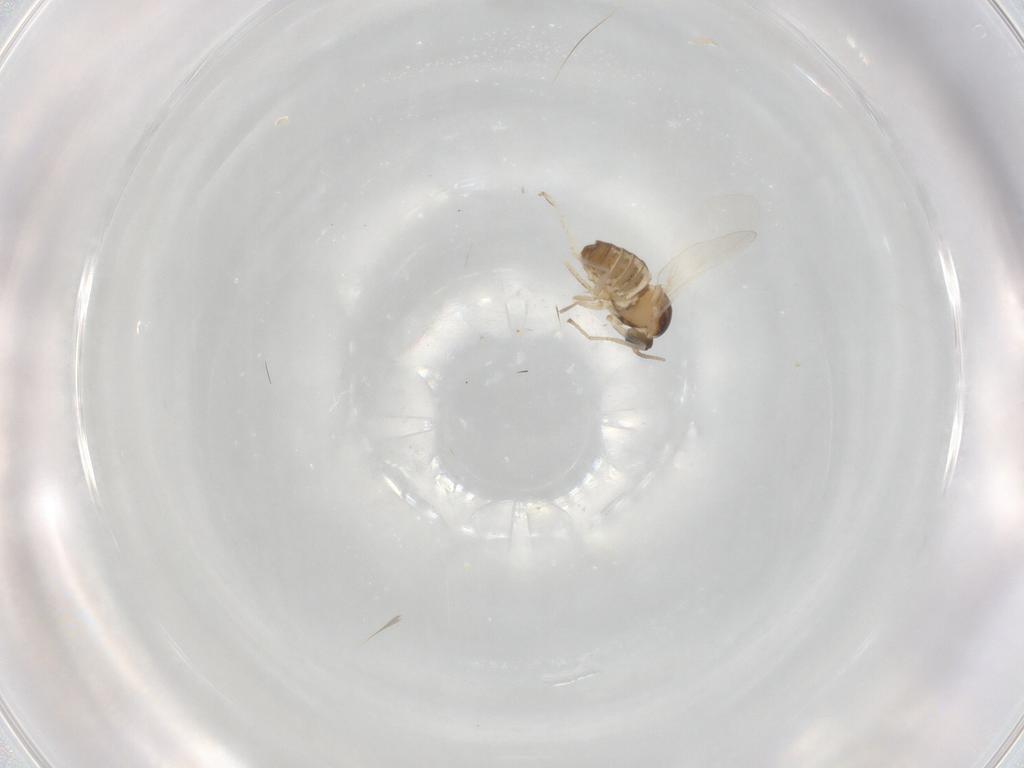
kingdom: Animalia
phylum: Arthropoda
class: Insecta
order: Diptera
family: Cecidomyiidae
